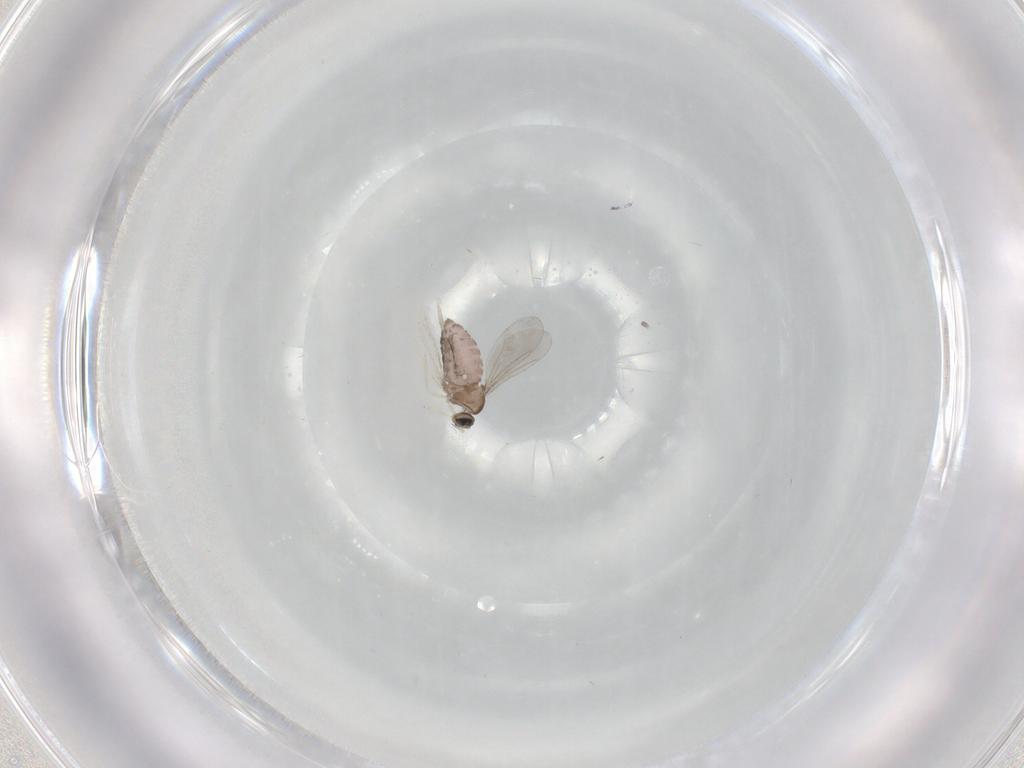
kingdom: Animalia
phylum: Arthropoda
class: Insecta
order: Diptera
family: Cecidomyiidae
